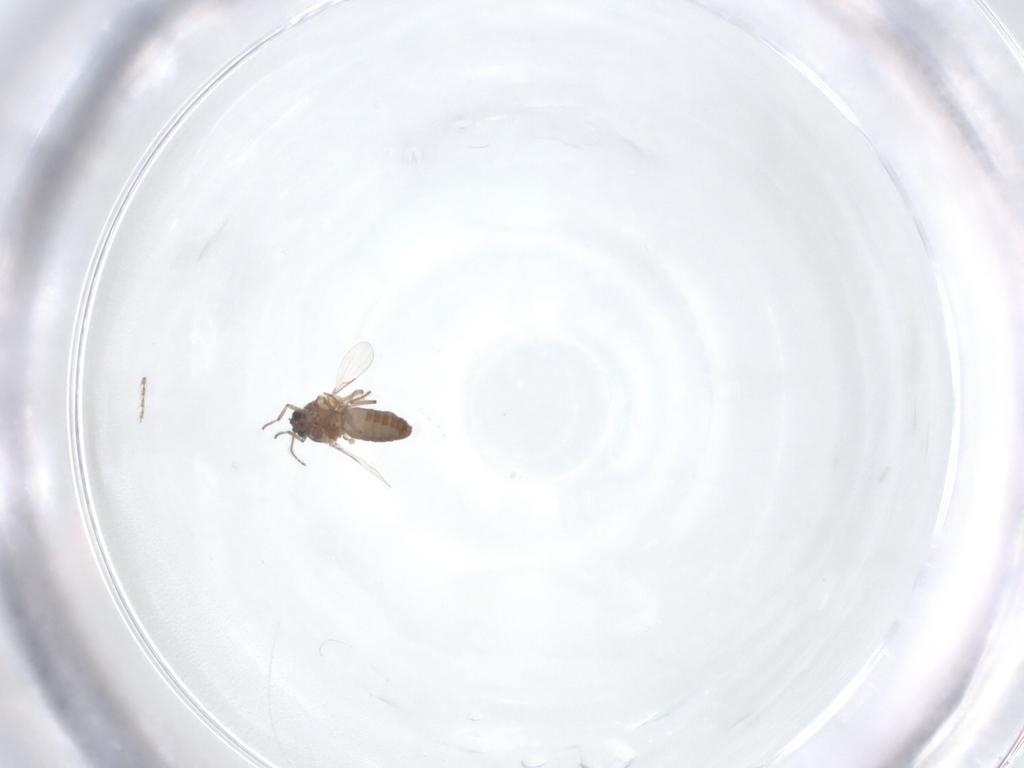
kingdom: Animalia
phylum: Arthropoda
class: Insecta
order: Diptera
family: Ceratopogonidae
